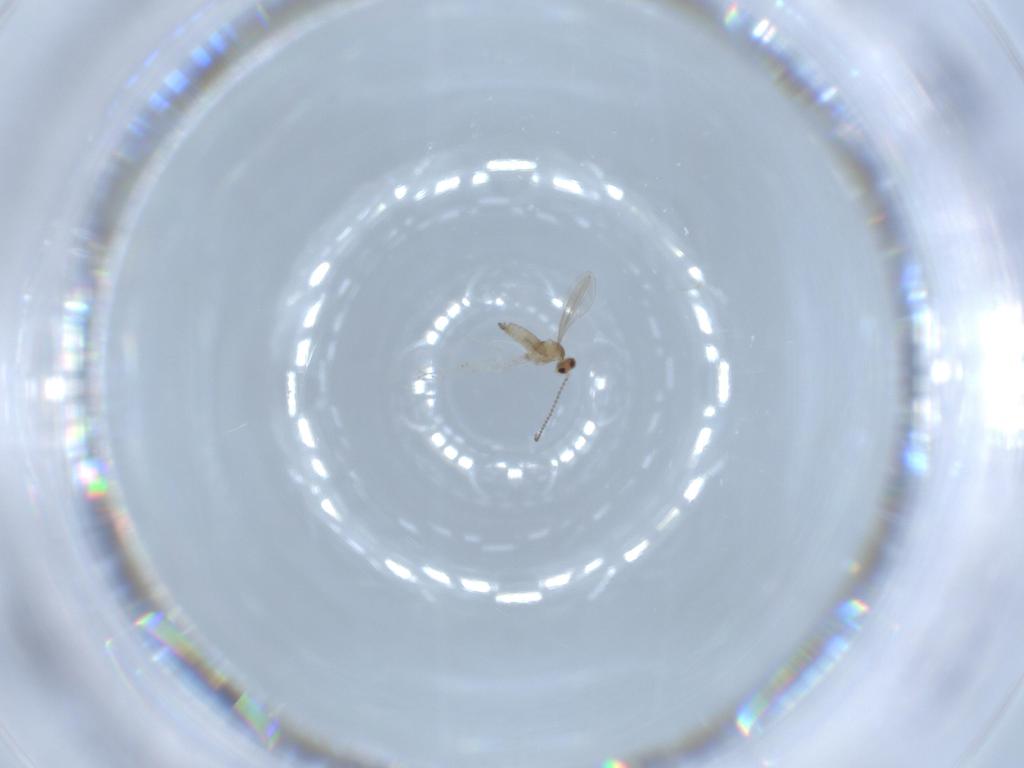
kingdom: Animalia
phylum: Arthropoda
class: Insecta
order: Diptera
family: Cecidomyiidae
